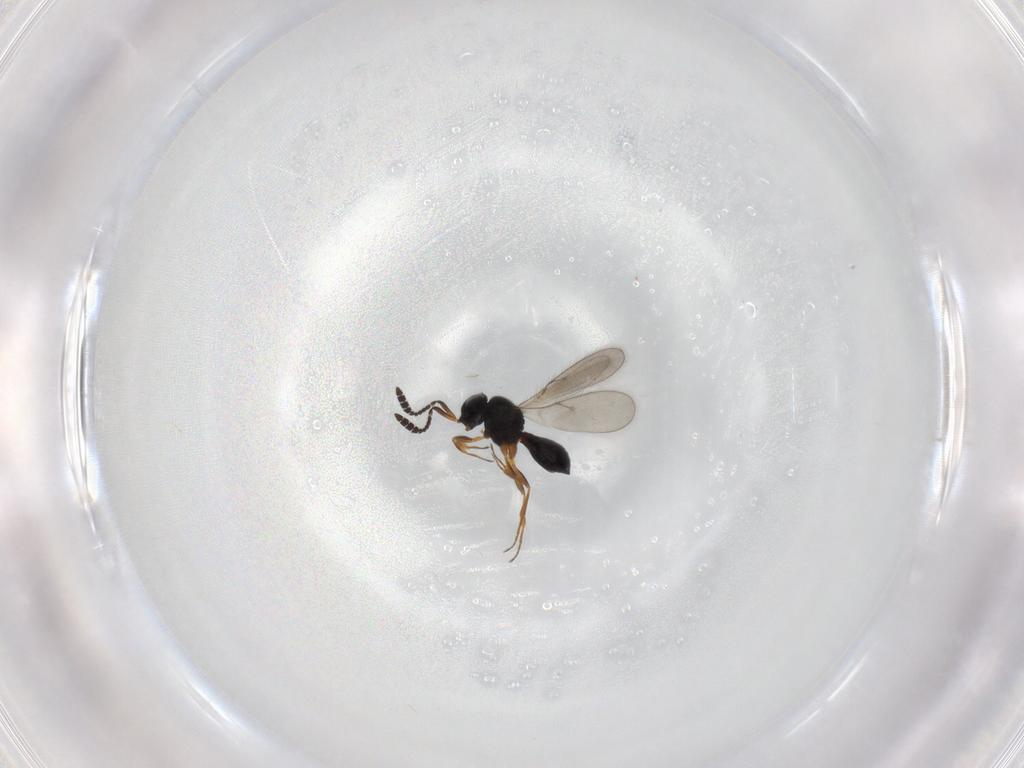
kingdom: Animalia
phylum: Arthropoda
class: Insecta
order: Hymenoptera
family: Scelionidae
